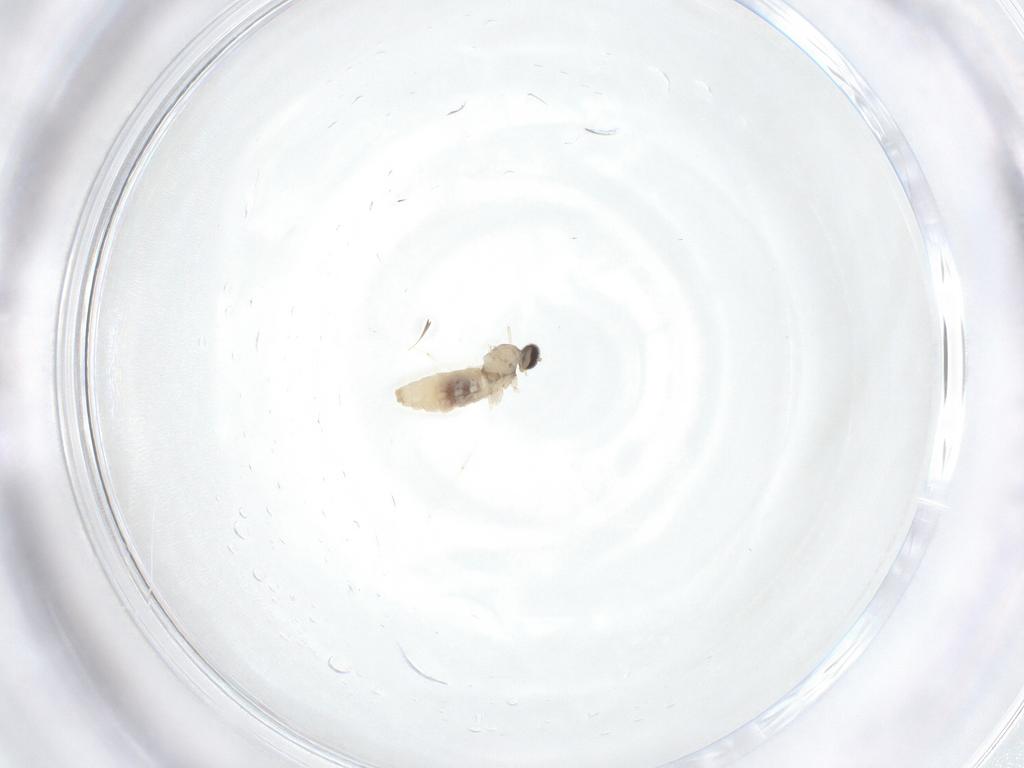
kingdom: Animalia
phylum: Arthropoda
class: Insecta
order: Diptera
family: Cecidomyiidae
